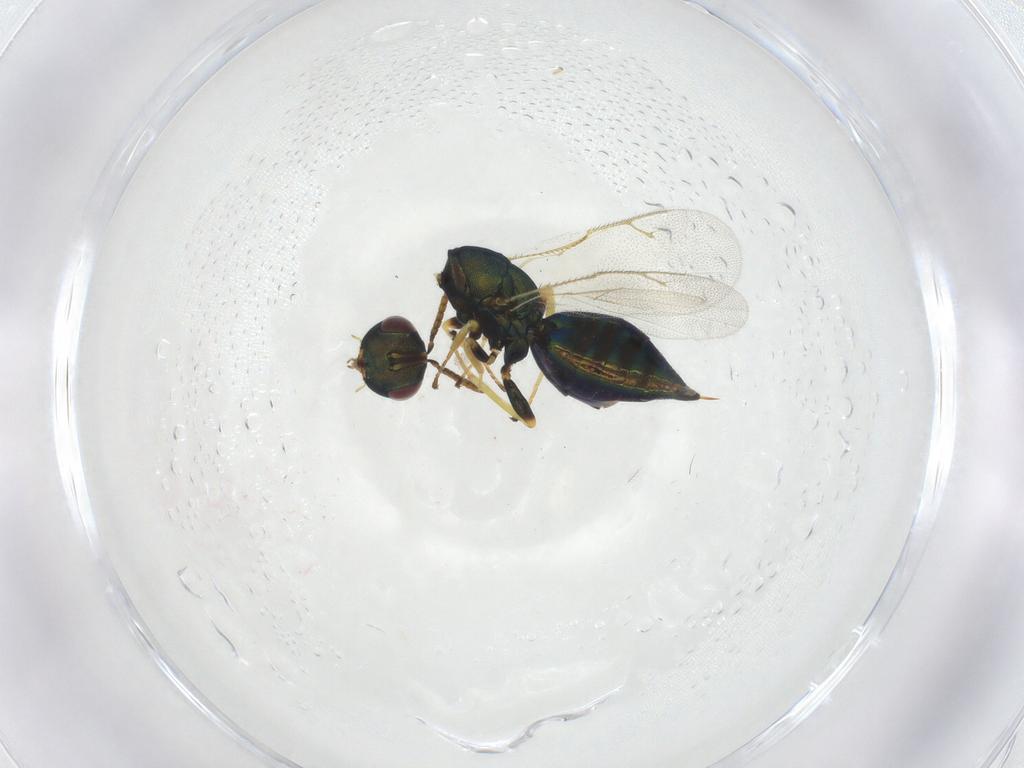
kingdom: Animalia
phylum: Arthropoda
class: Insecta
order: Hymenoptera
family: Pteromalidae
